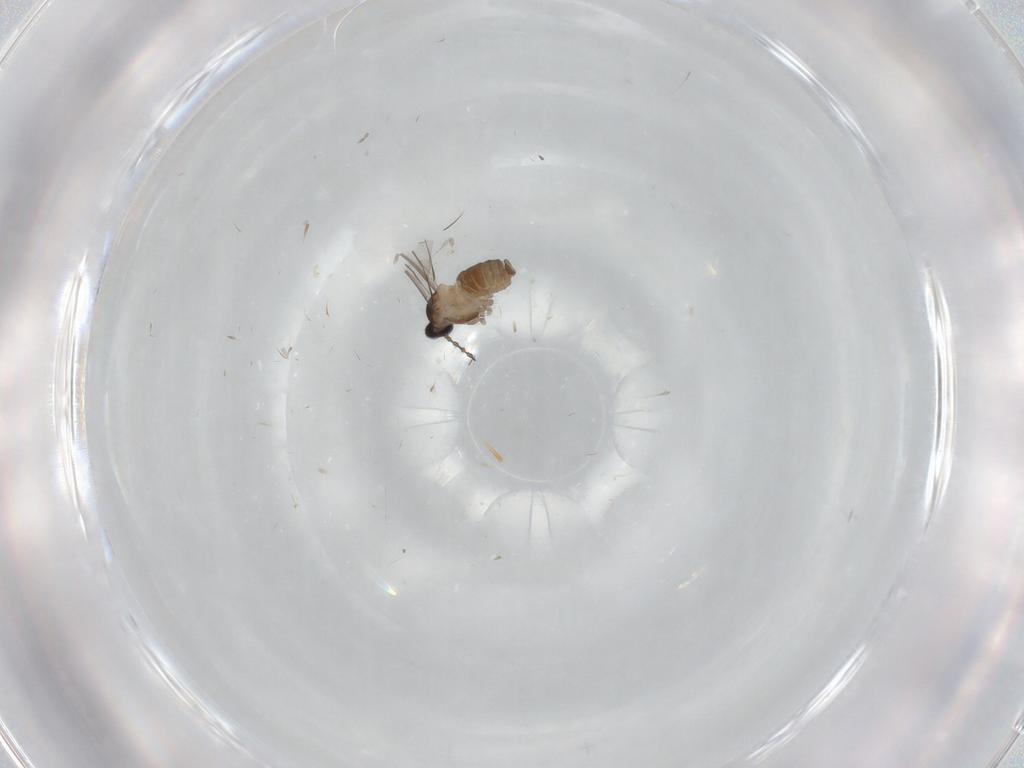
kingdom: Animalia
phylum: Arthropoda
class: Insecta
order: Diptera
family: Cecidomyiidae
